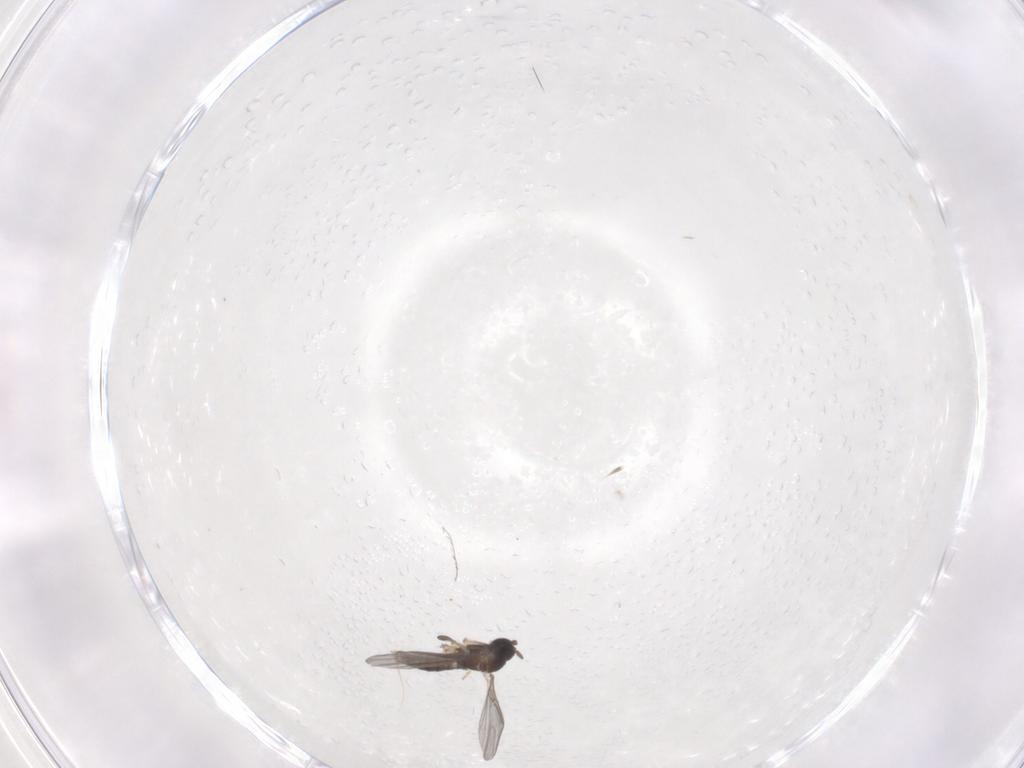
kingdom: Animalia
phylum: Arthropoda
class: Insecta
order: Diptera
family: Sciaridae
